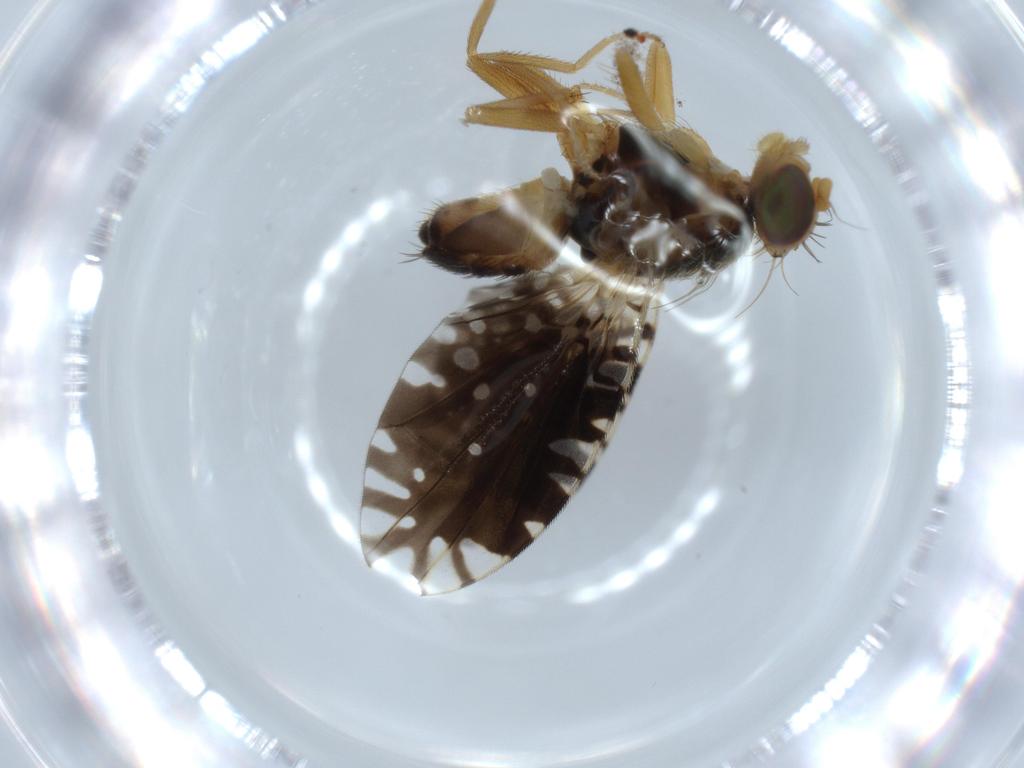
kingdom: Animalia
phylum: Arthropoda
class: Insecta
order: Diptera
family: Tephritidae
